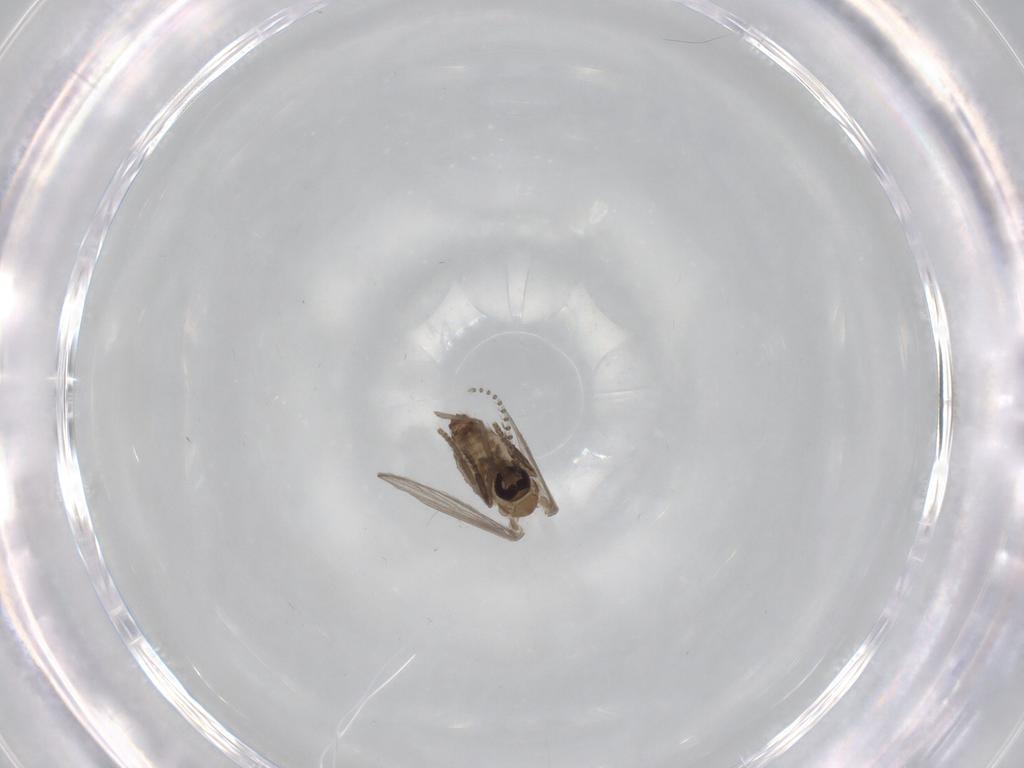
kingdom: Animalia
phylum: Arthropoda
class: Insecta
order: Diptera
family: Psychodidae
